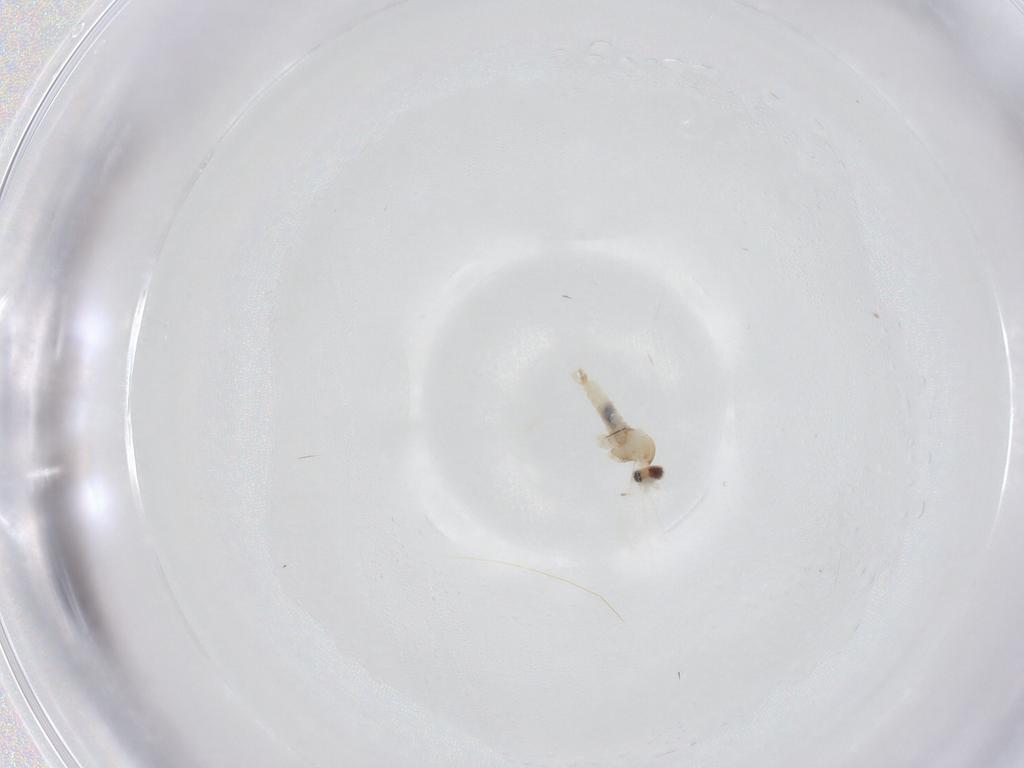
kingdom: Animalia
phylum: Arthropoda
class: Insecta
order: Diptera
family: Cecidomyiidae
